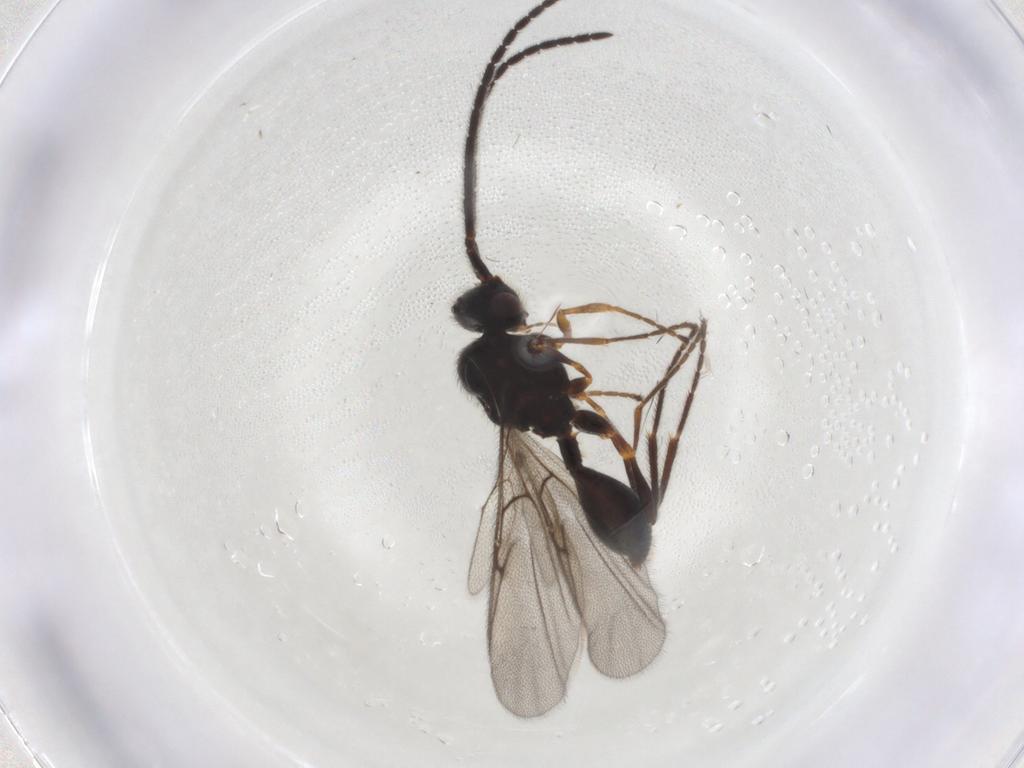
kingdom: Animalia
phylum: Arthropoda
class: Insecta
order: Hymenoptera
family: Diapriidae
